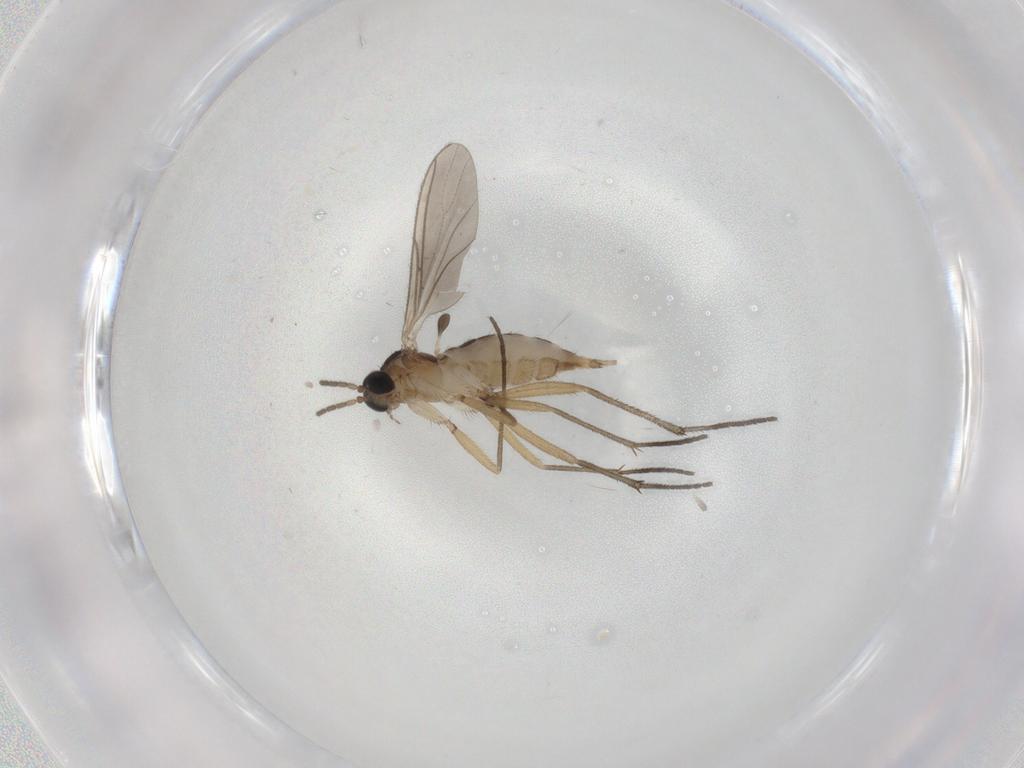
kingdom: Animalia
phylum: Arthropoda
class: Insecta
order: Diptera
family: Sciaridae
